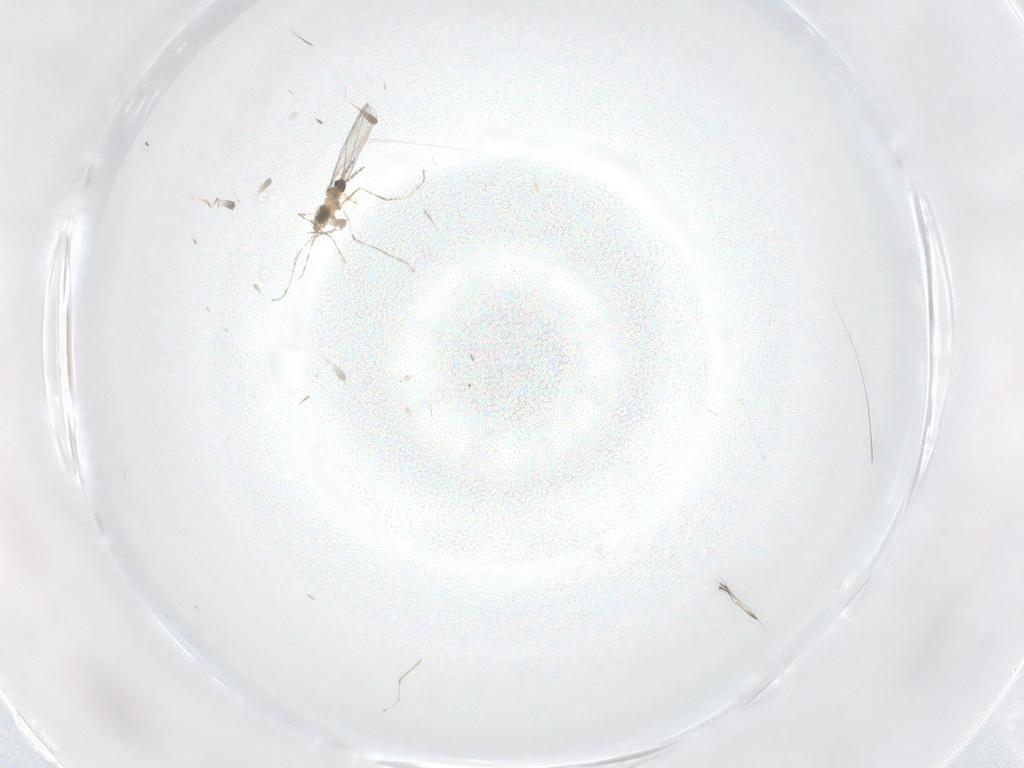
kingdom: Animalia
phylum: Arthropoda
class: Insecta
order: Diptera
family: Cecidomyiidae
